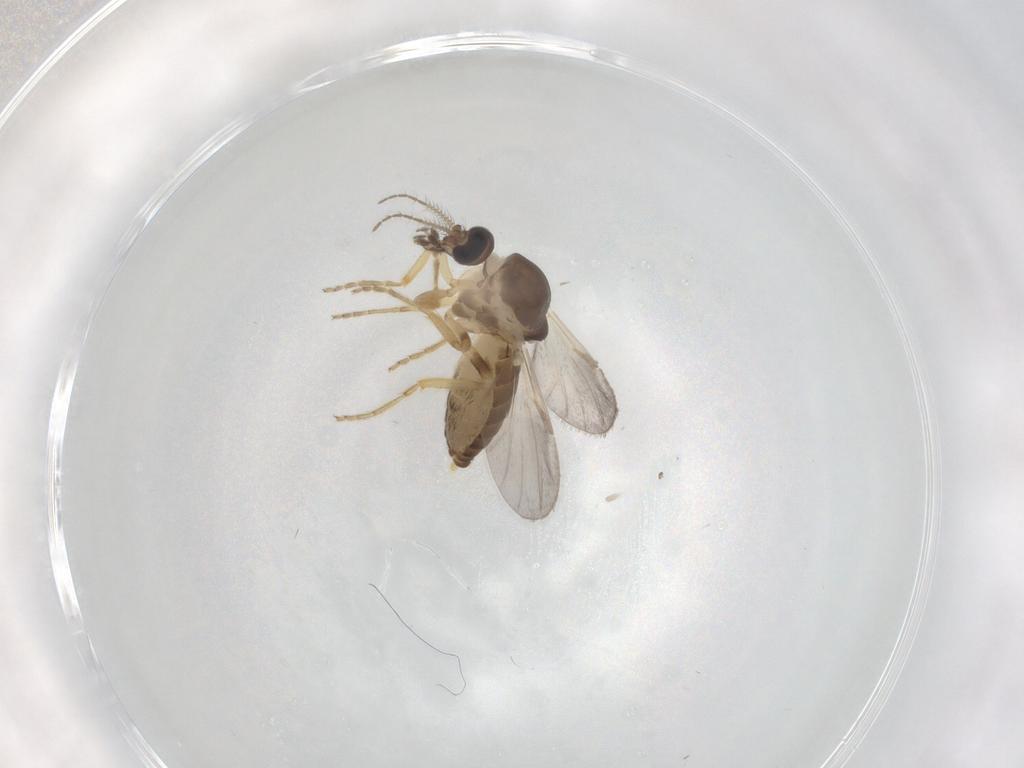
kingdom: Animalia
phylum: Arthropoda
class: Insecta
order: Diptera
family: Ceratopogonidae
